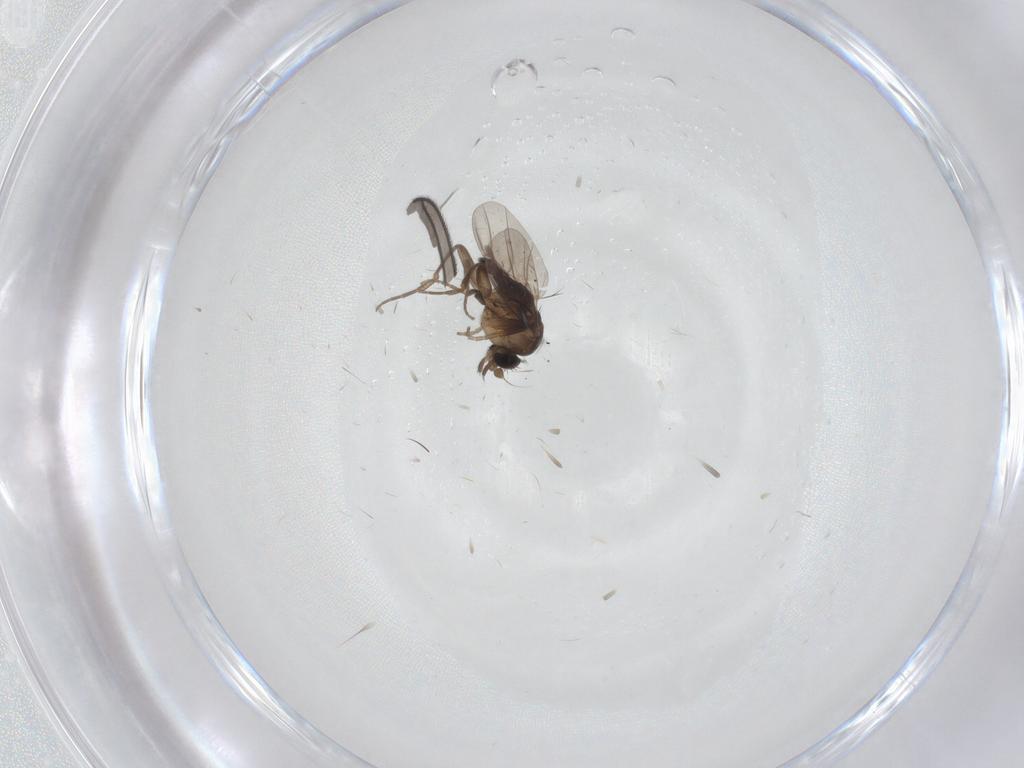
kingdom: Animalia
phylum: Arthropoda
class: Insecta
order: Diptera
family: Phoridae
